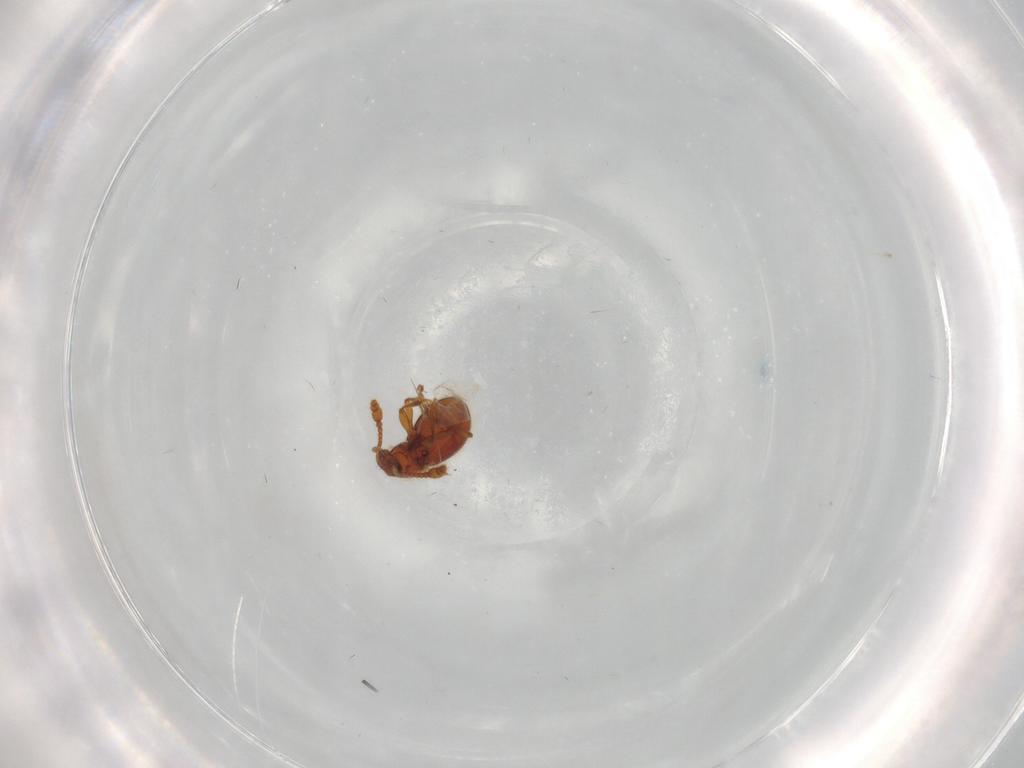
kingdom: Animalia
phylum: Arthropoda
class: Insecta
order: Coleoptera
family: Staphylinidae
